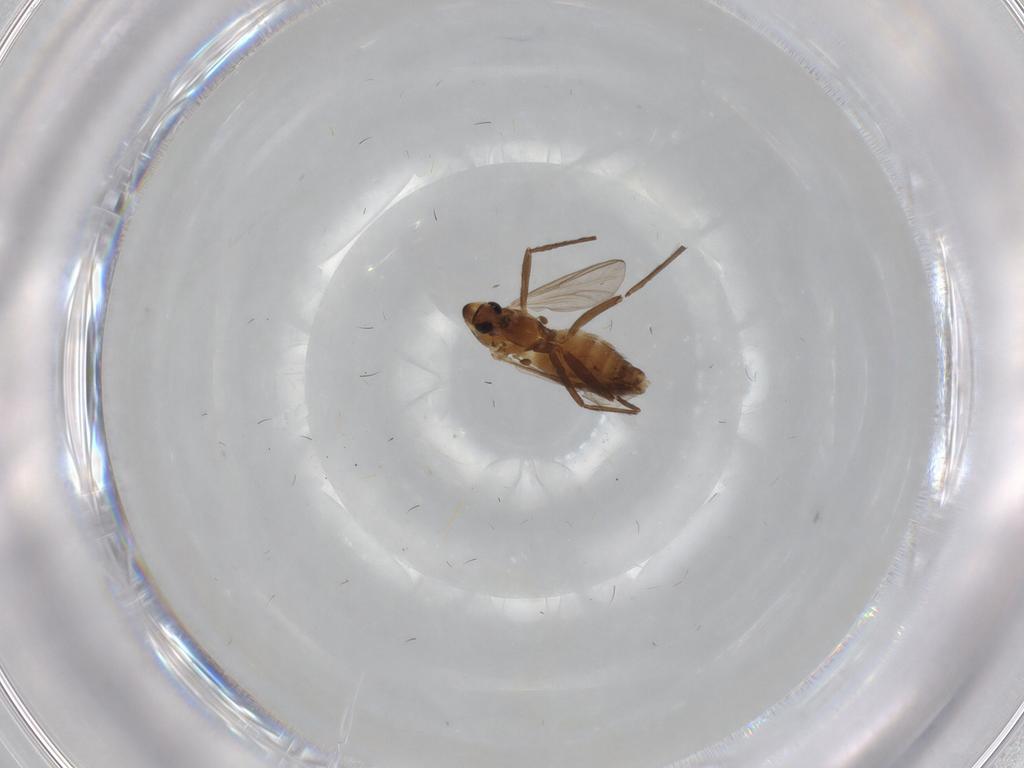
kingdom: Animalia
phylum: Arthropoda
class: Insecta
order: Diptera
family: Chironomidae
